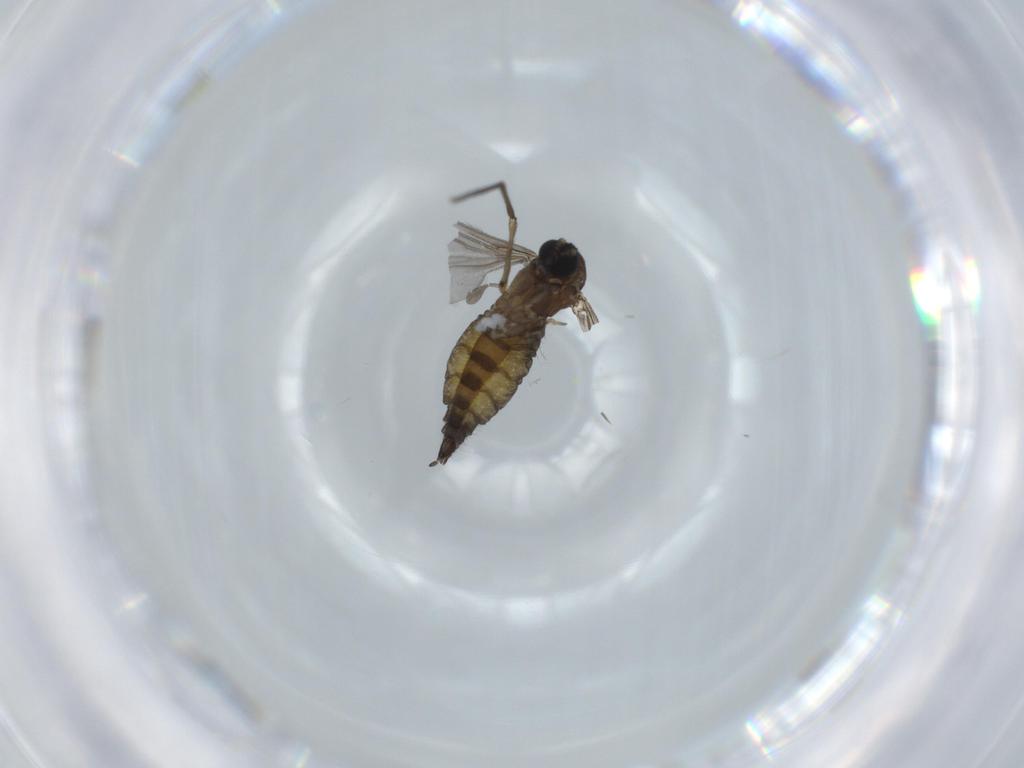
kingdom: Animalia
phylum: Arthropoda
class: Insecta
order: Diptera
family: Sciaridae
